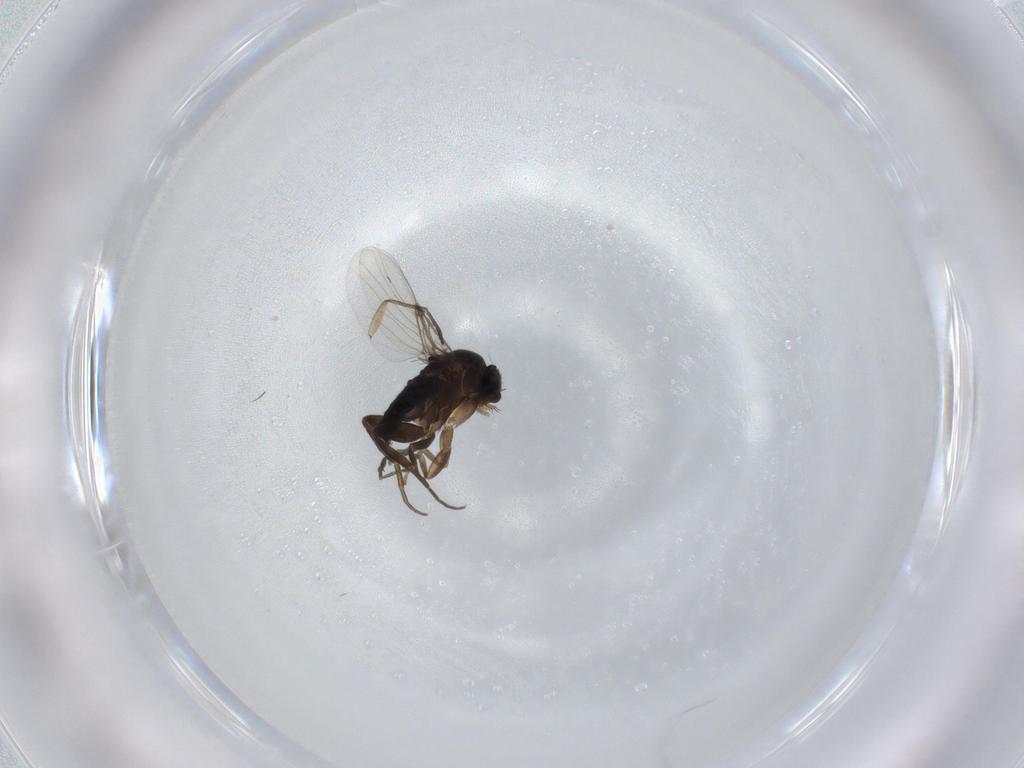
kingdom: Animalia
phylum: Arthropoda
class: Insecta
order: Diptera
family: Phoridae
